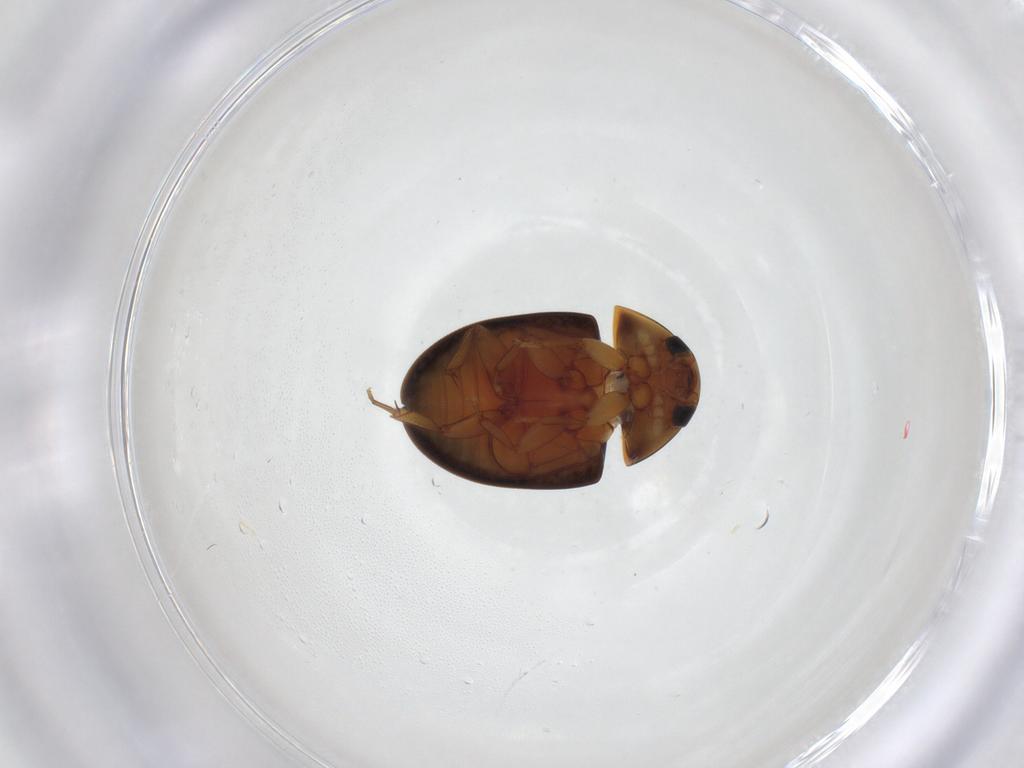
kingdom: Animalia
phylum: Arthropoda
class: Insecta
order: Coleoptera
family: Phalacridae
